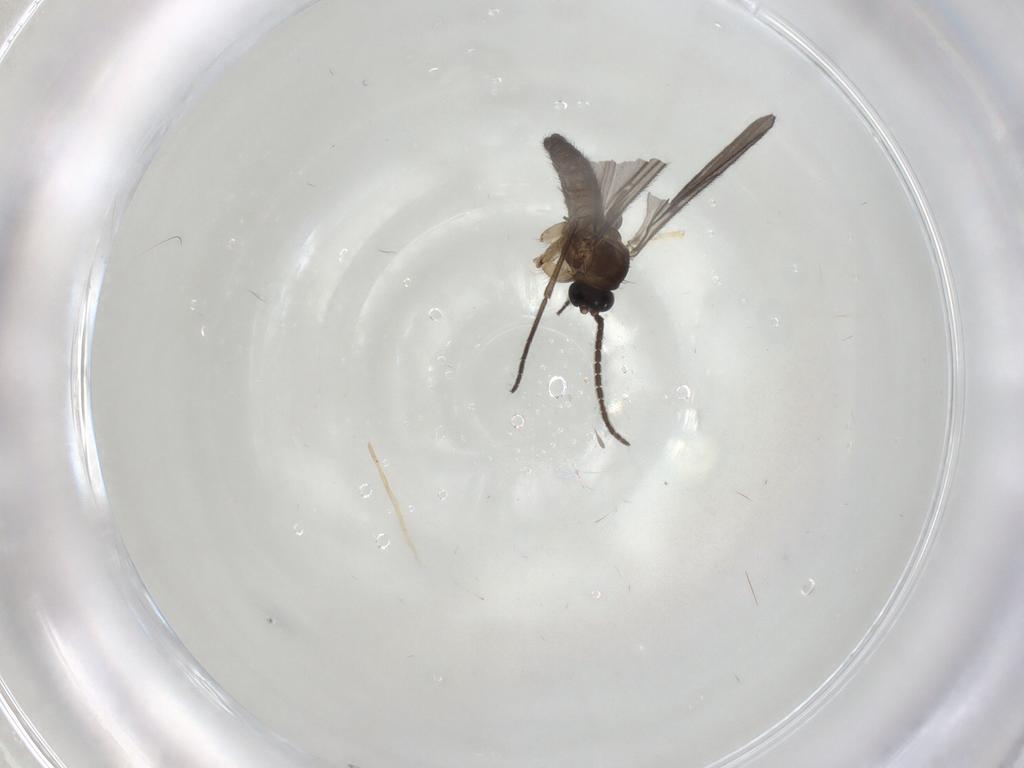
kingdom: Animalia
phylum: Arthropoda
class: Insecta
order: Diptera
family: Sciaridae
